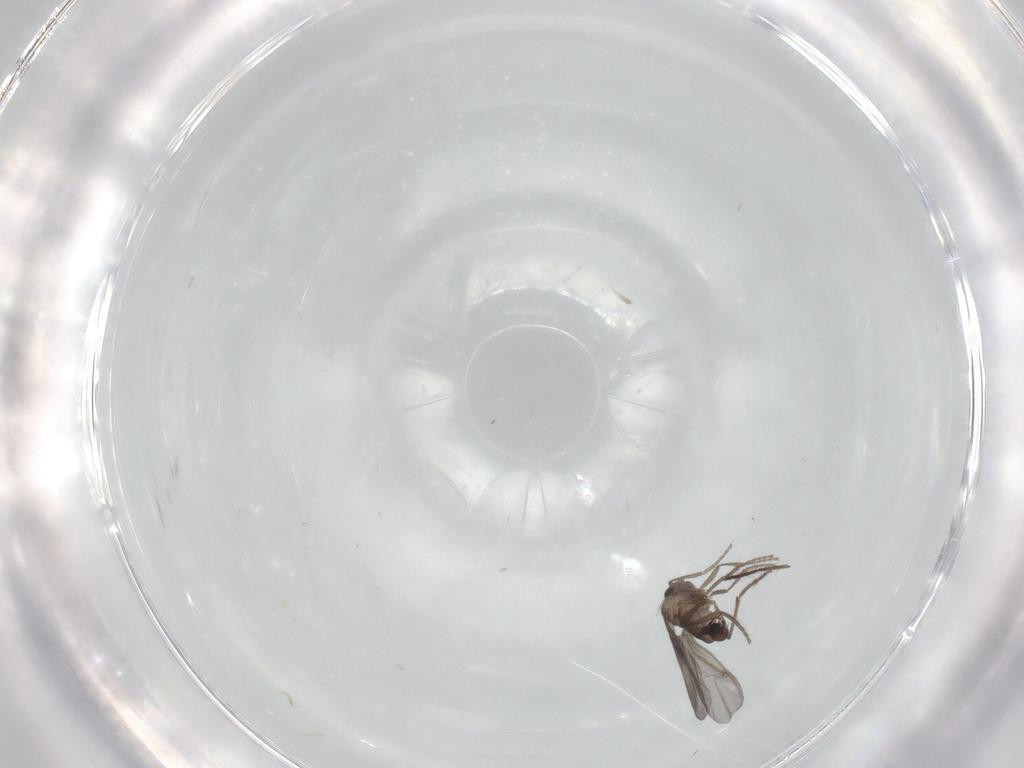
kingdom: Animalia
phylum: Arthropoda
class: Insecta
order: Diptera
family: Phoridae
